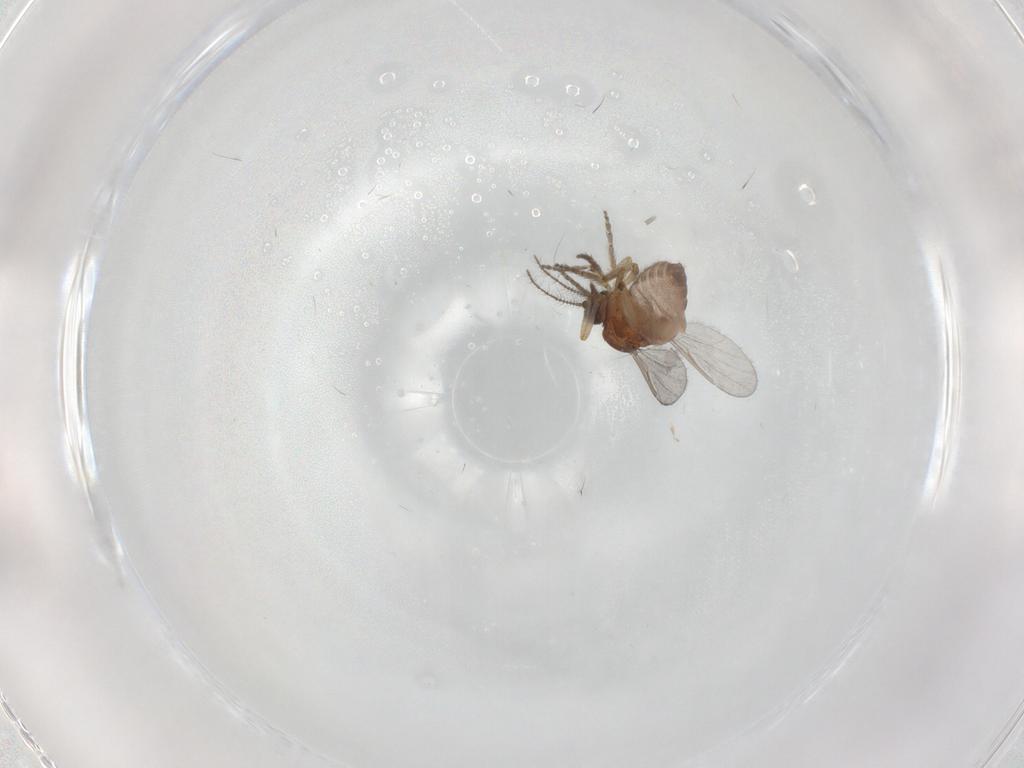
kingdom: Animalia
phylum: Arthropoda
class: Insecta
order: Diptera
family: Ceratopogonidae
